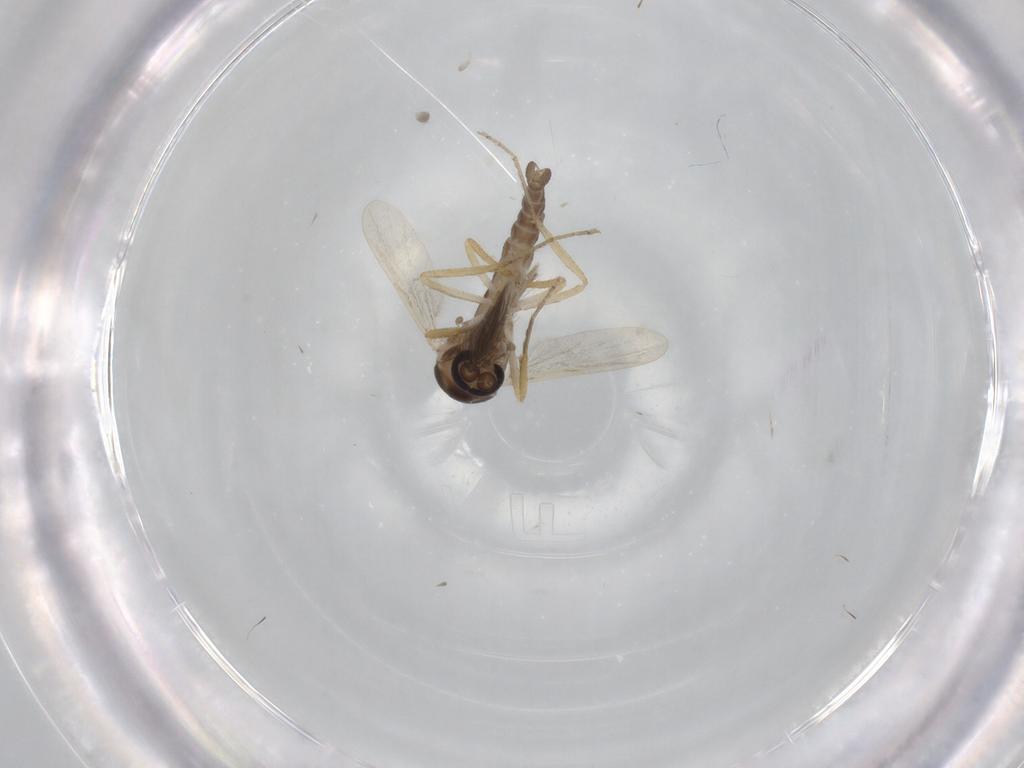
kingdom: Animalia
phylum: Arthropoda
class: Insecta
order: Diptera
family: Ceratopogonidae
